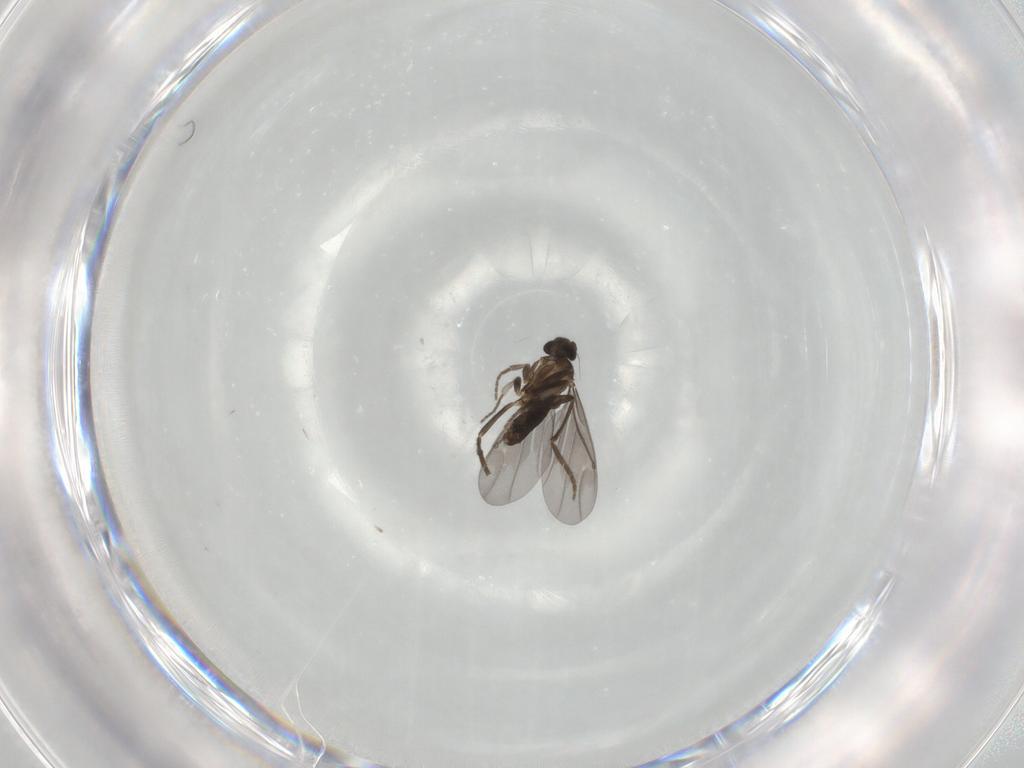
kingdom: Animalia
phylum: Arthropoda
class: Insecta
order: Diptera
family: Phoridae
